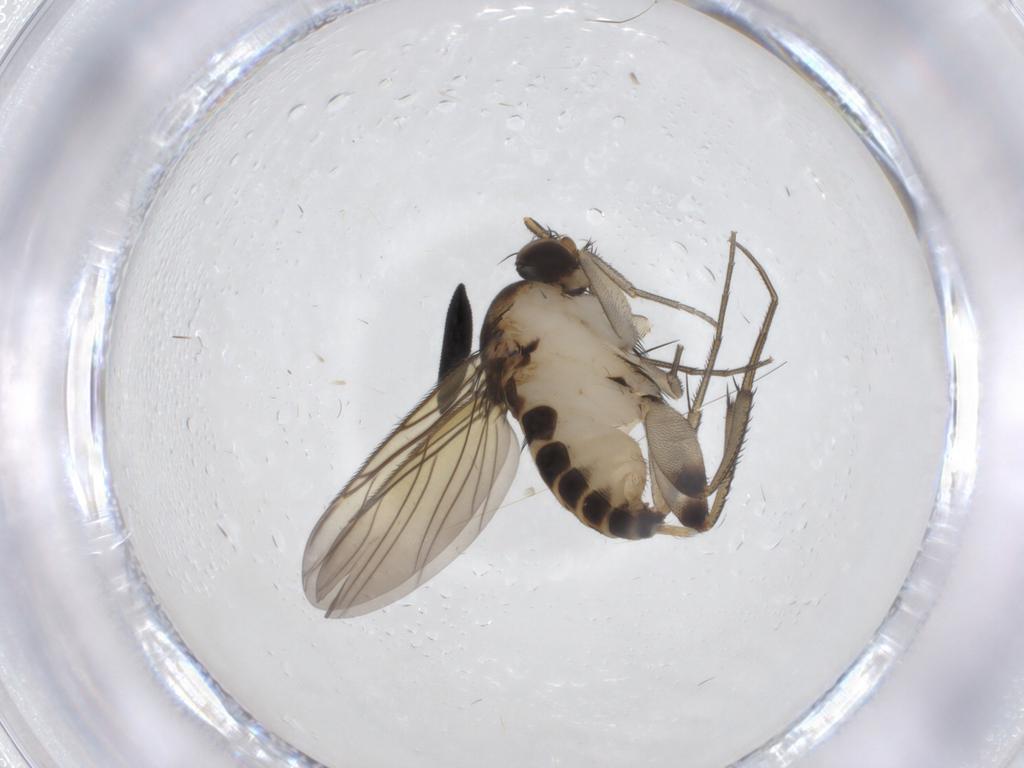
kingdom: Animalia
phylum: Arthropoda
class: Insecta
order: Diptera
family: Phoridae
